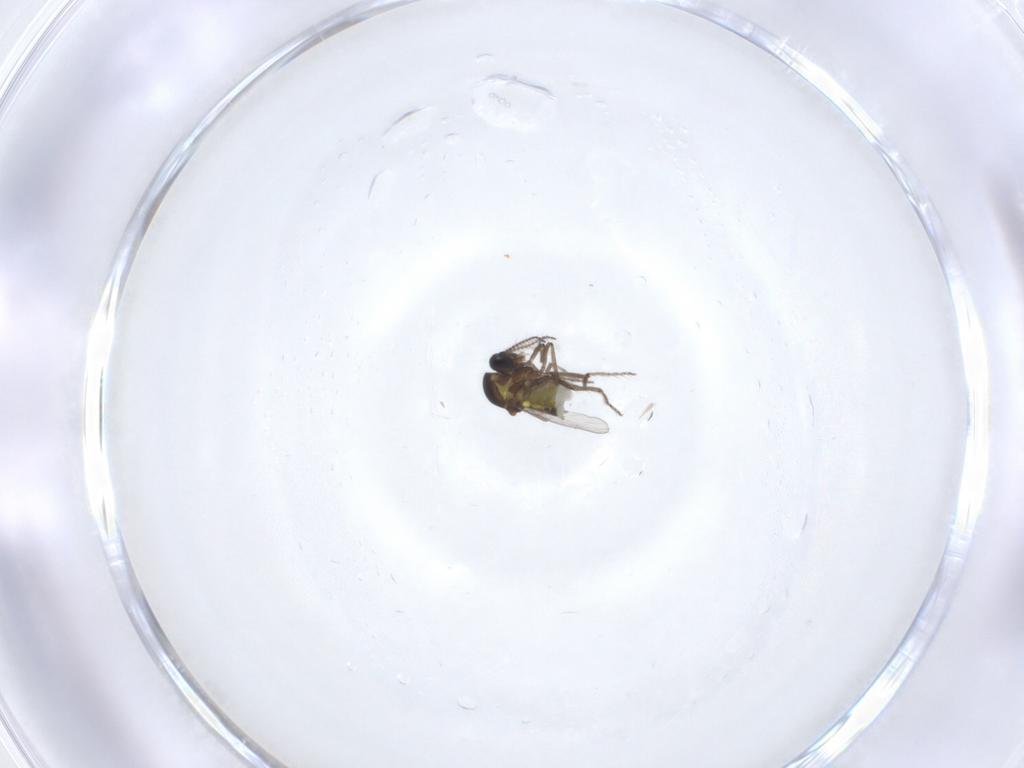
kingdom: Animalia
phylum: Arthropoda
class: Insecta
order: Diptera
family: Ceratopogonidae
